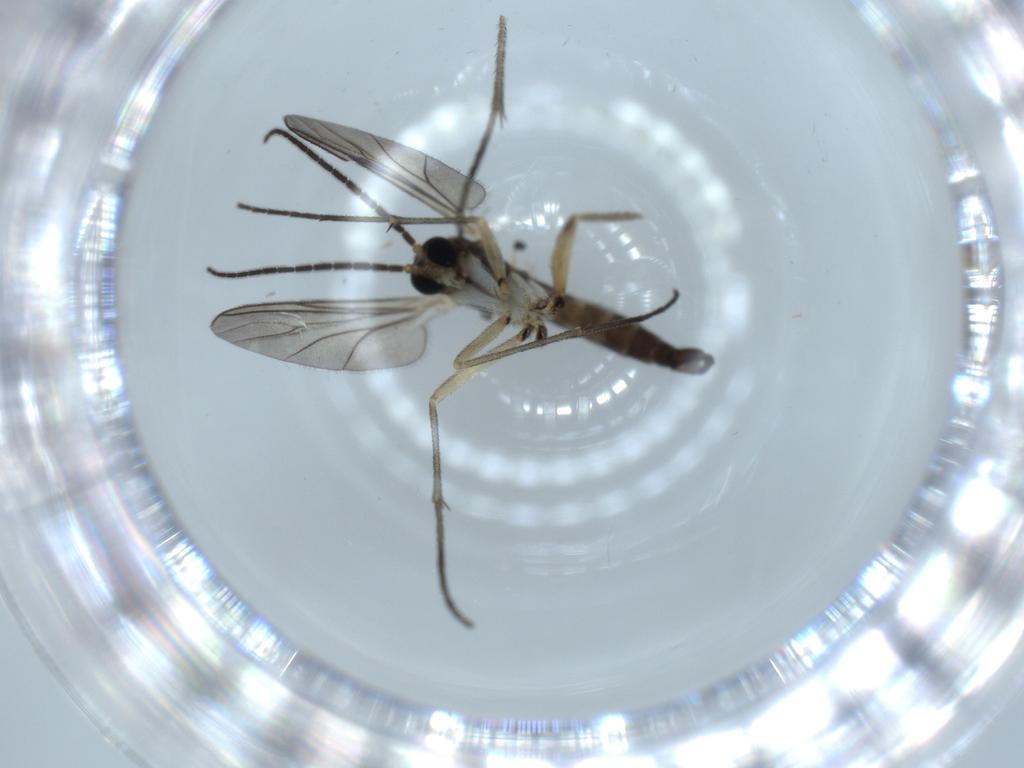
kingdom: Animalia
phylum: Arthropoda
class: Insecta
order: Diptera
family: Sciaridae
